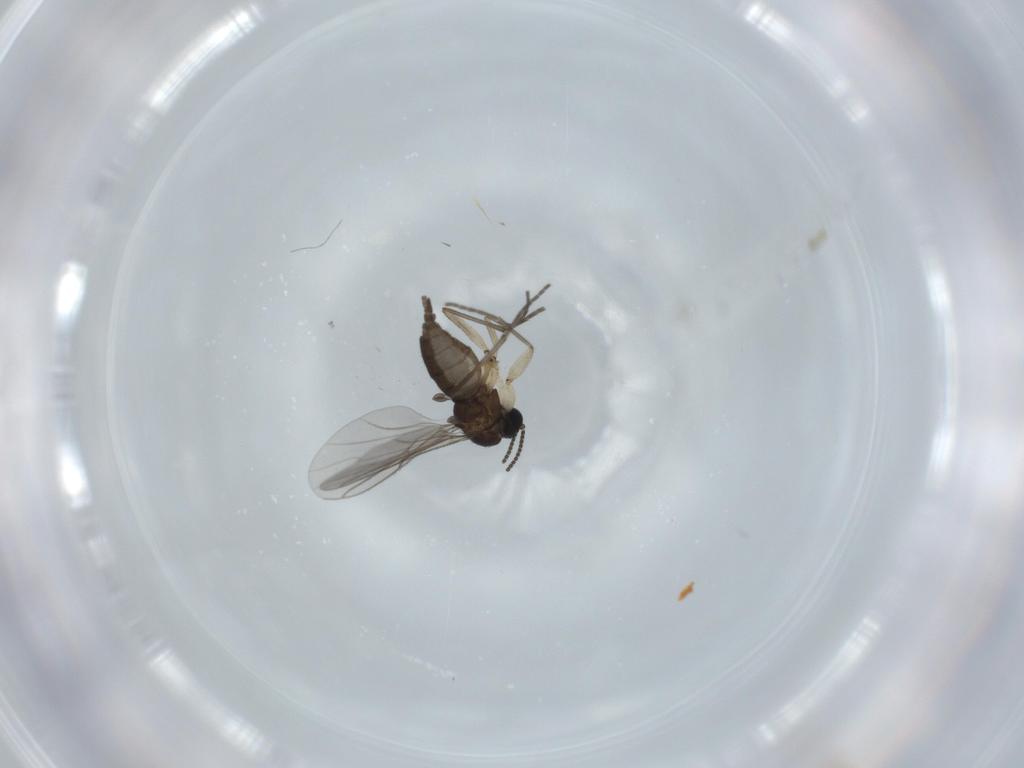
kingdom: Animalia
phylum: Arthropoda
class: Insecta
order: Diptera
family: Sciaridae
